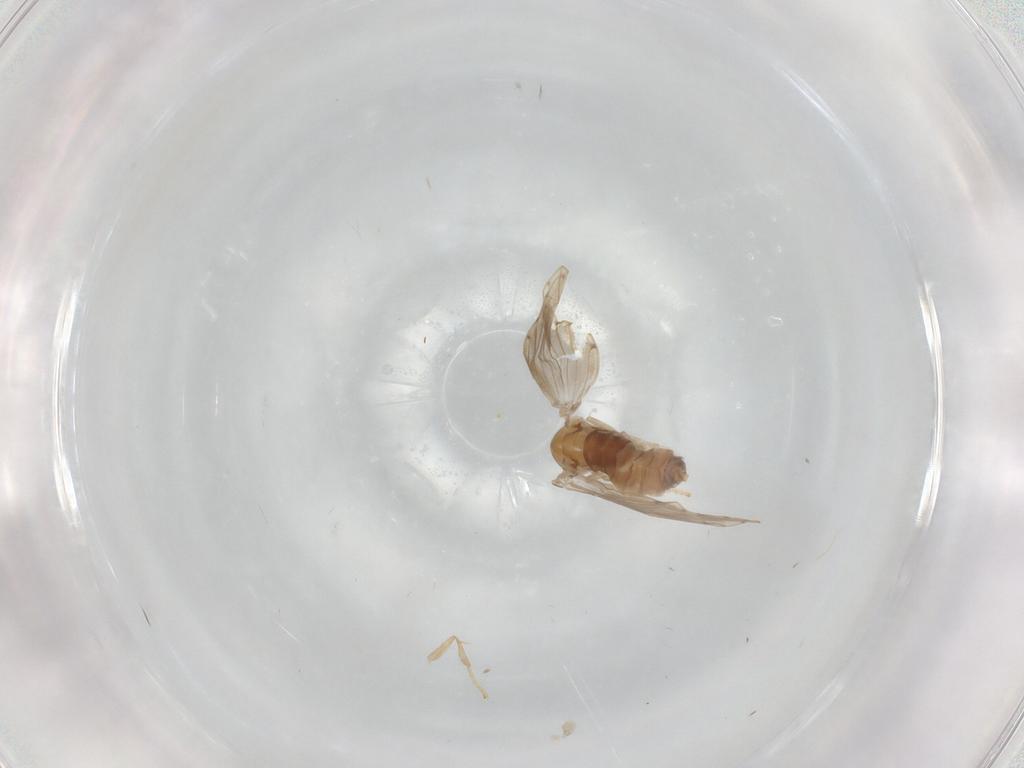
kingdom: Animalia
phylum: Arthropoda
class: Insecta
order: Diptera
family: Psychodidae
